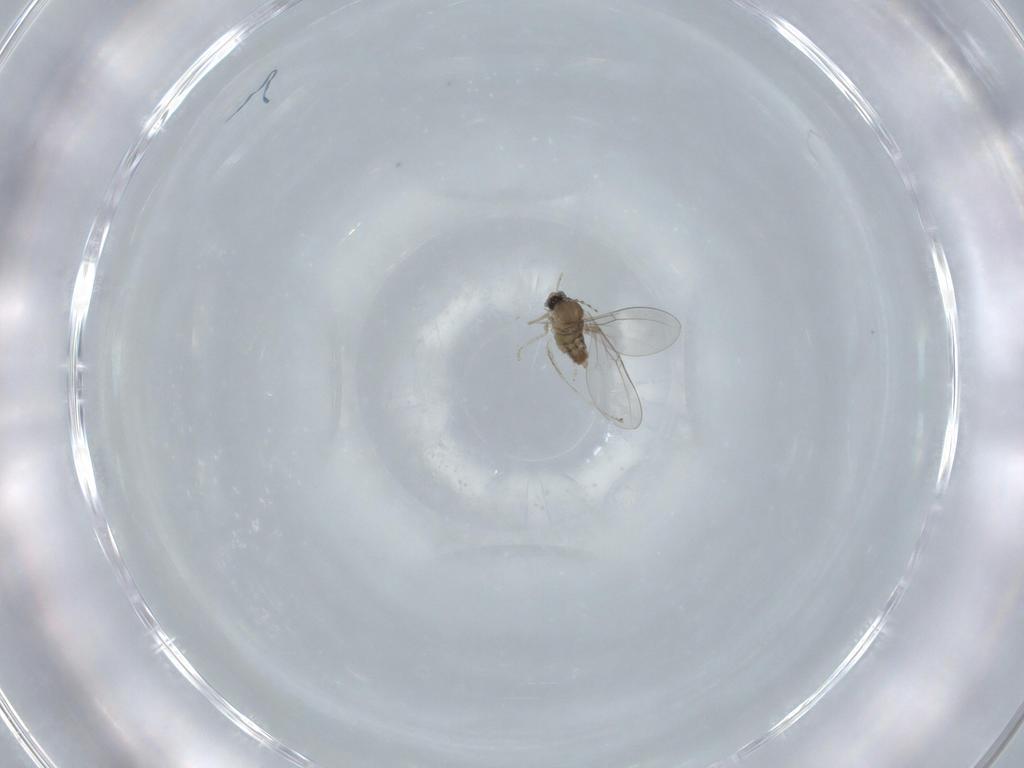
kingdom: Animalia
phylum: Arthropoda
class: Insecta
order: Diptera
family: Cecidomyiidae
